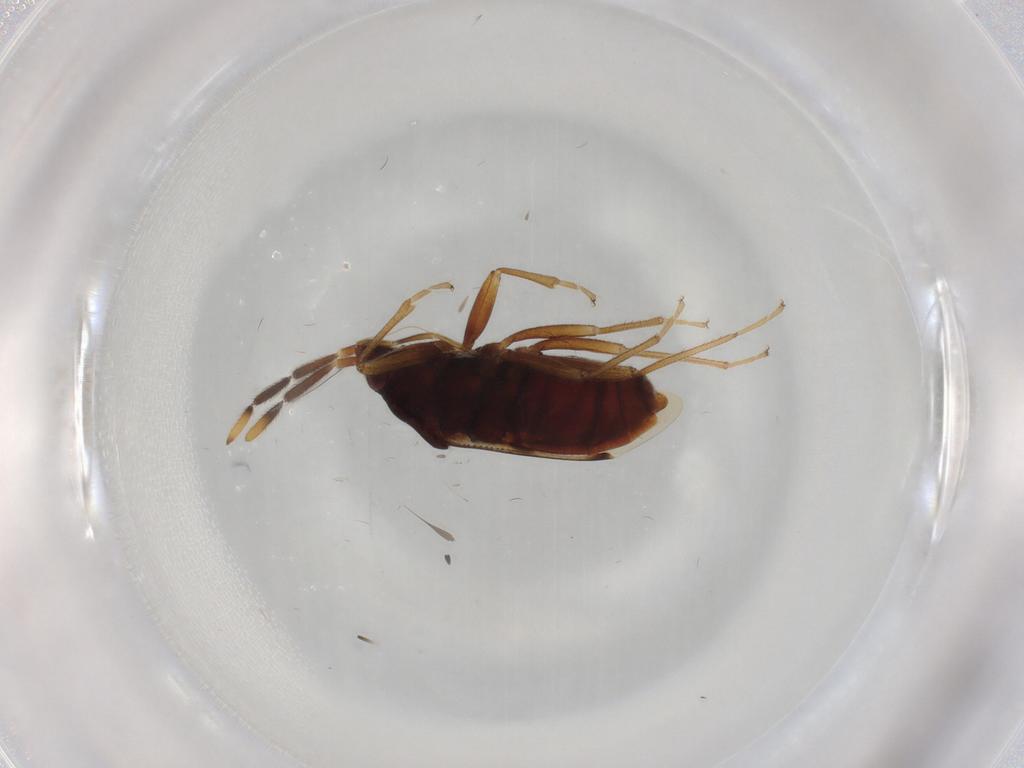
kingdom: Animalia
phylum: Arthropoda
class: Insecta
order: Hemiptera
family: Rhyparochromidae
